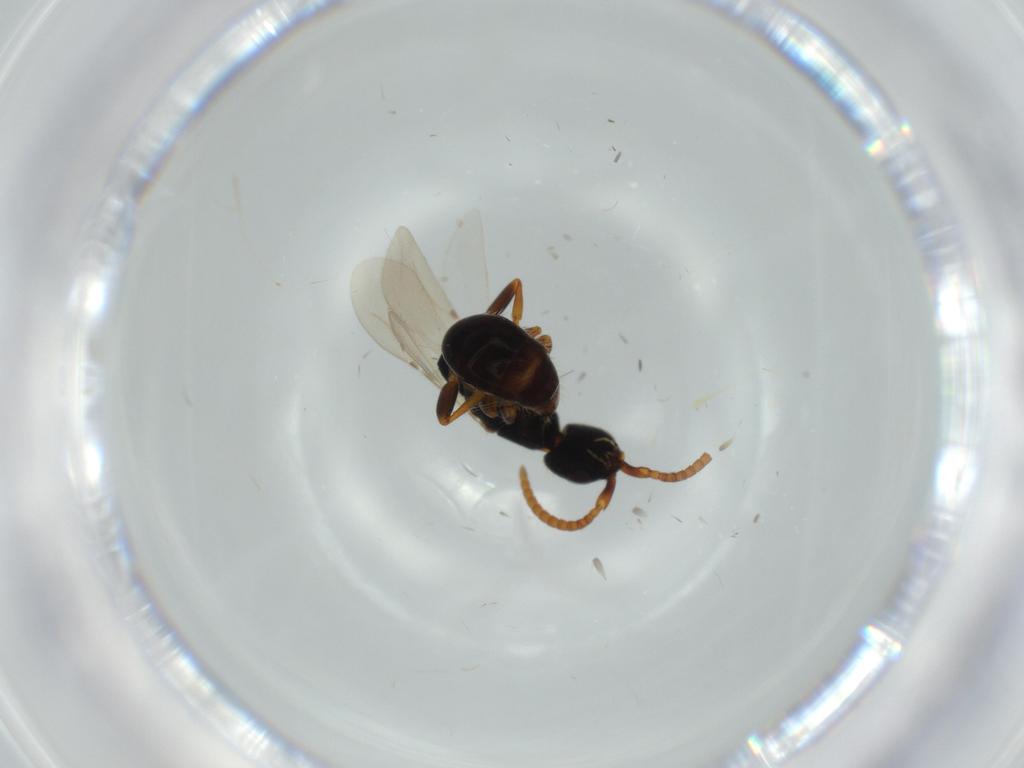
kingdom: Animalia
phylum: Arthropoda
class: Insecta
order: Hymenoptera
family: Bethylidae
